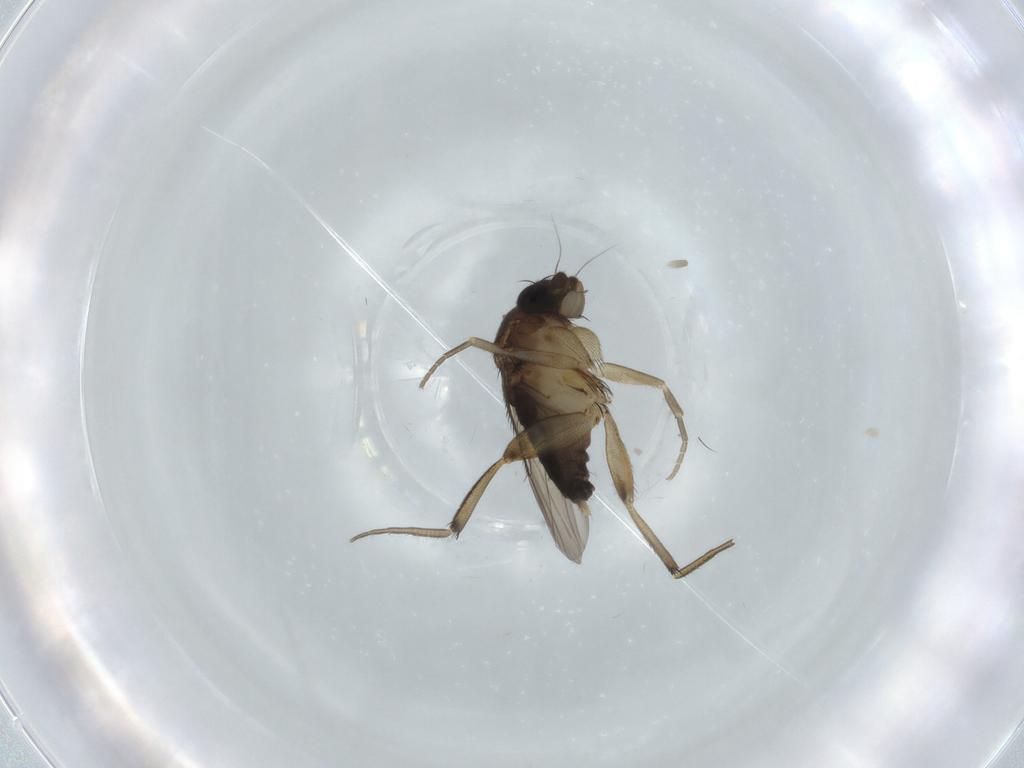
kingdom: Animalia
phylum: Arthropoda
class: Insecta
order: Diptera
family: Phoridae
